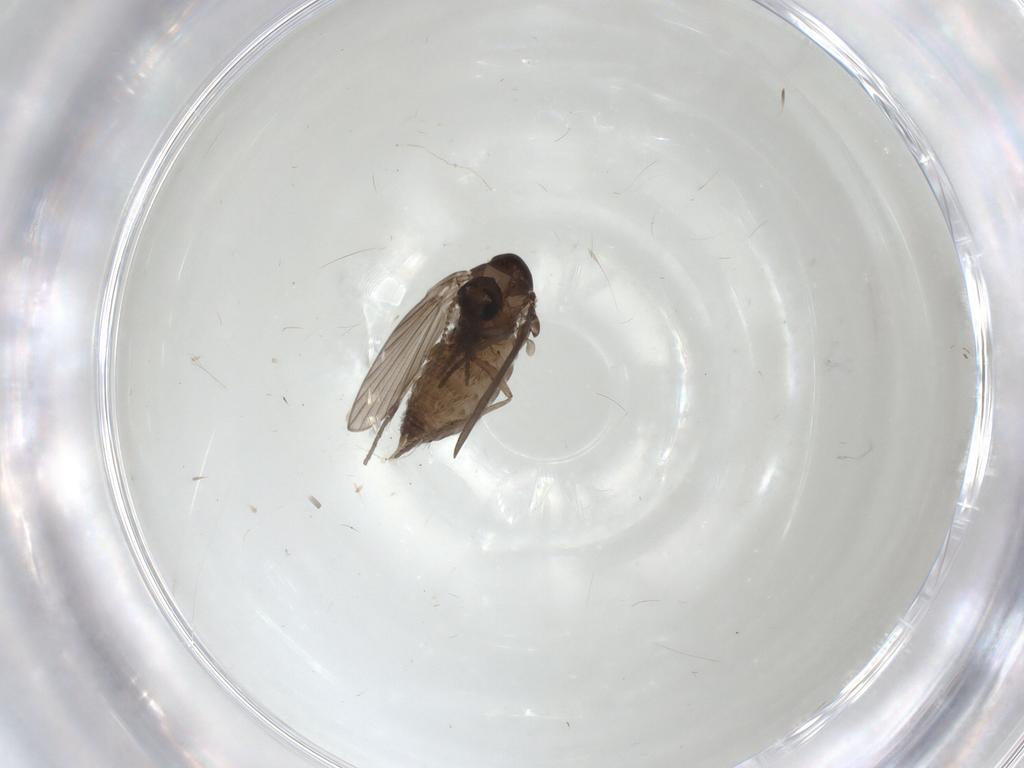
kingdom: Animalia
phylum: Arthropoda
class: Insecta
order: Diptera
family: Psychodidae
